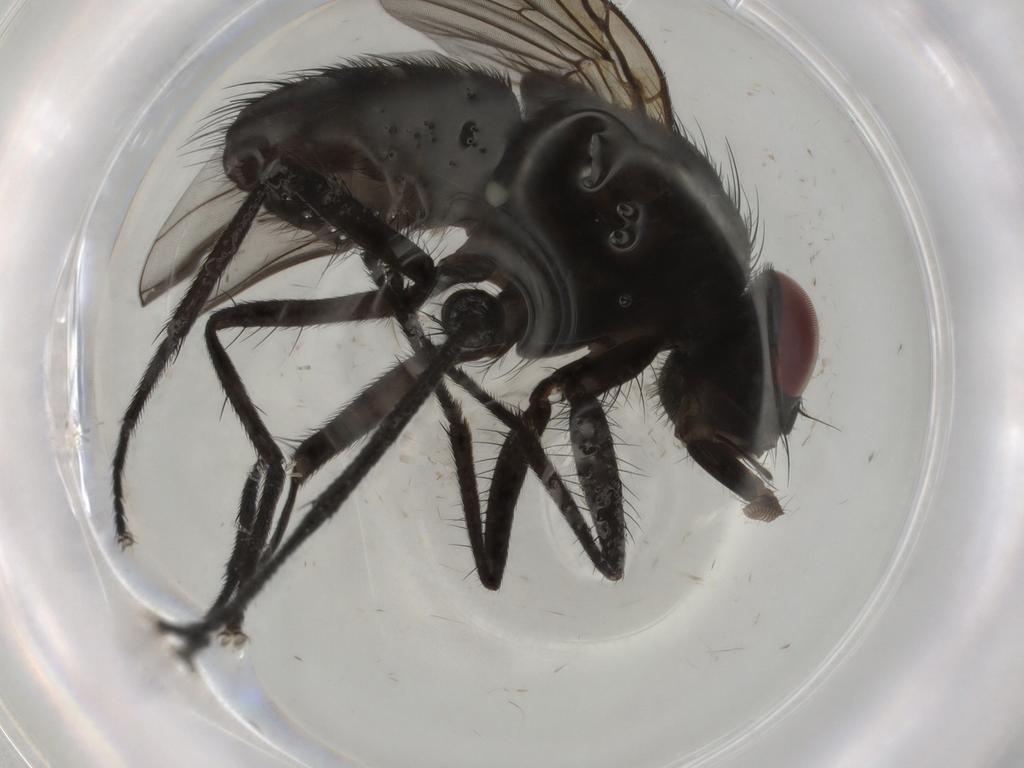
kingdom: Animalia
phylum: Arthropoda
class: Insecta
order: Diptera
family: Muscidae
